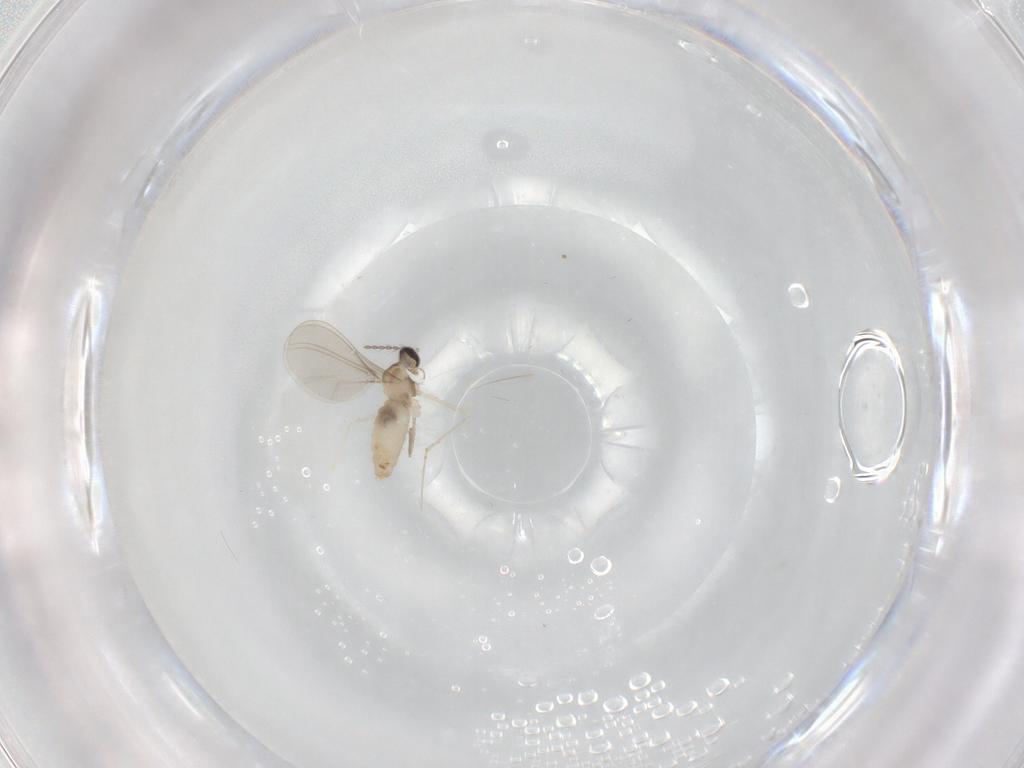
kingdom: Animalia
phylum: Arthropoda
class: Insecta
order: Diptera
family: Cecidomyiidae
